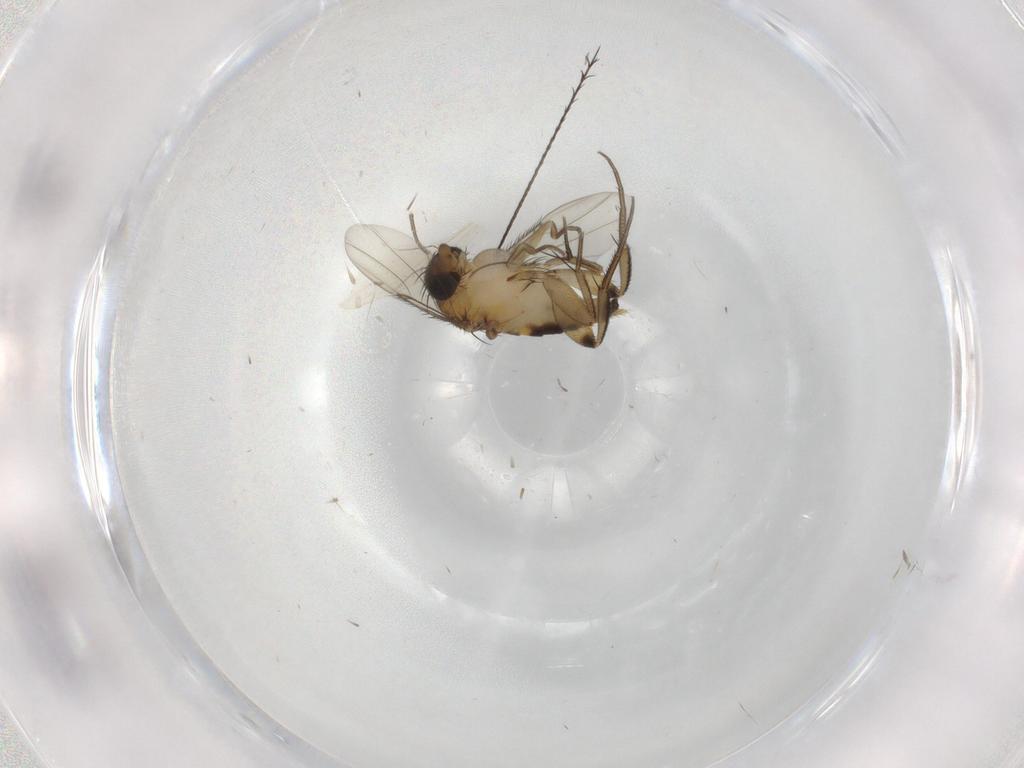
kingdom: Animalia
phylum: Arthropoda
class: Insecta
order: Diptera
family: Phoridae
